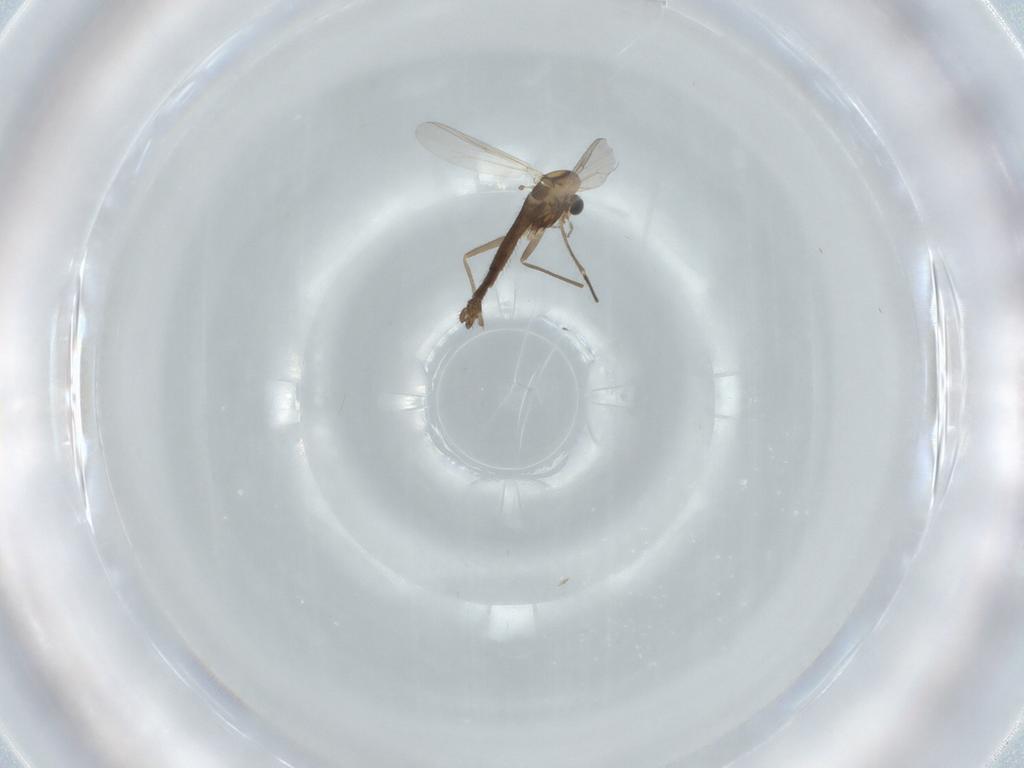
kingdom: Animalia
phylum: Arthropoda
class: Insecta
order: Diptera
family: Chironomidae
